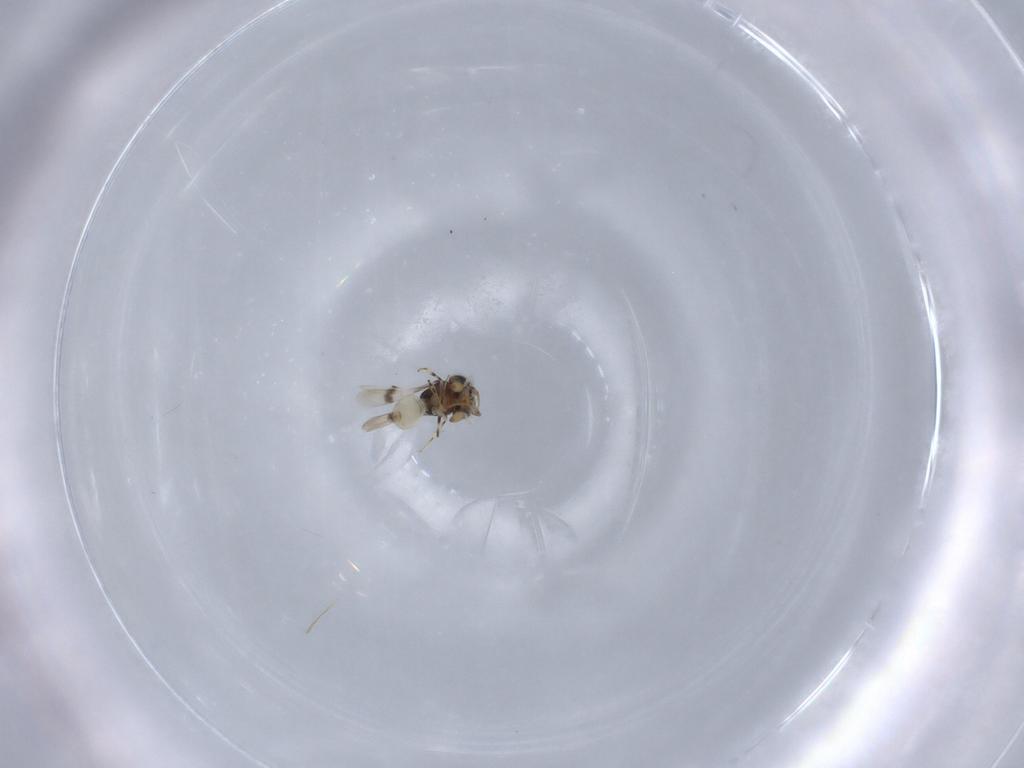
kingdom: Animalia
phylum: Arthropoda
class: Insecta
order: Hymenoptera
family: Scelionidae
